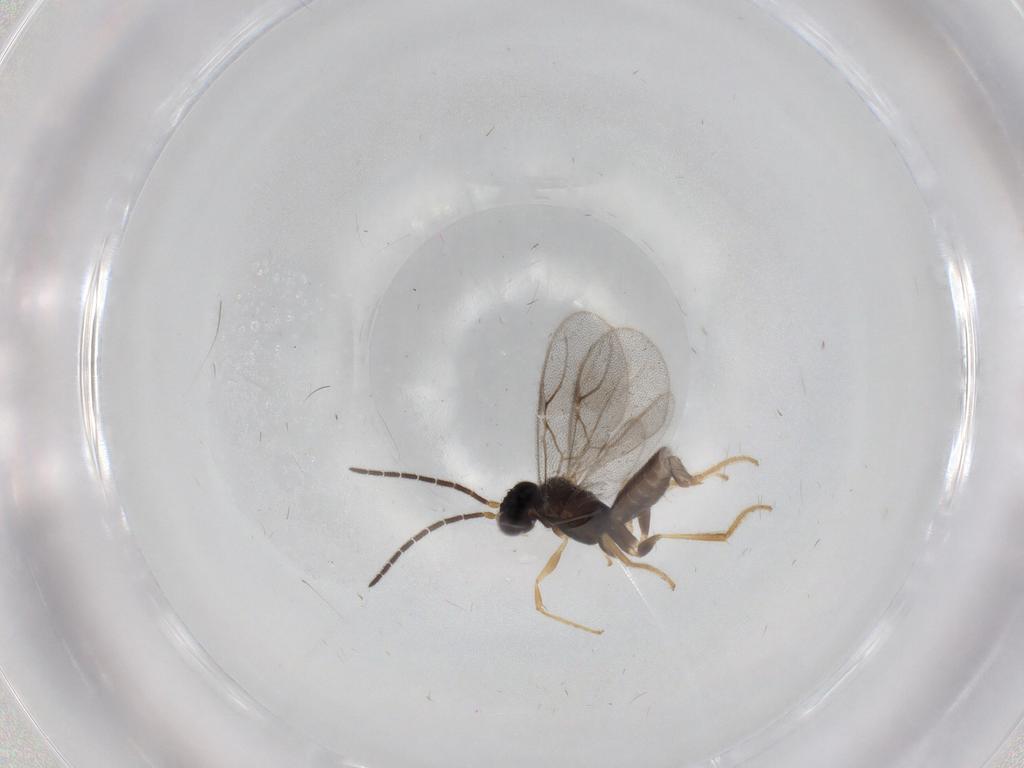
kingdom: Animalia
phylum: Arthropoda
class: Insecta
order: Hymenoptera
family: Dryinidae
